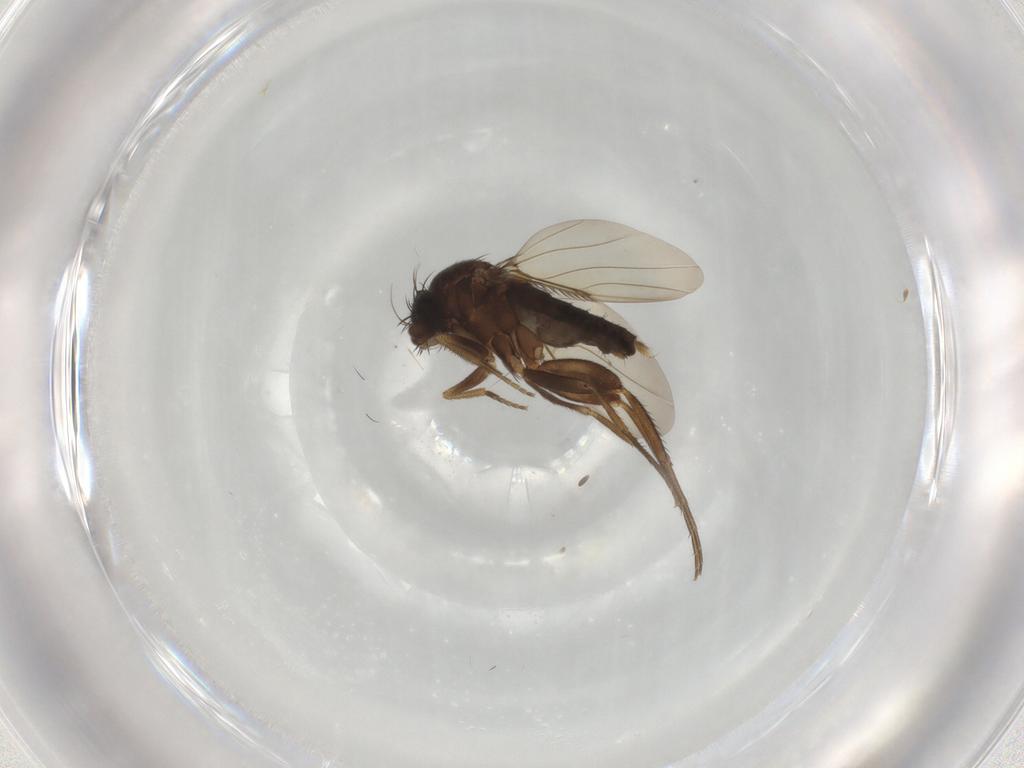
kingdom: Animalia
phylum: Arthropoda
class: Insecta
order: Diptera
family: Phoridae
